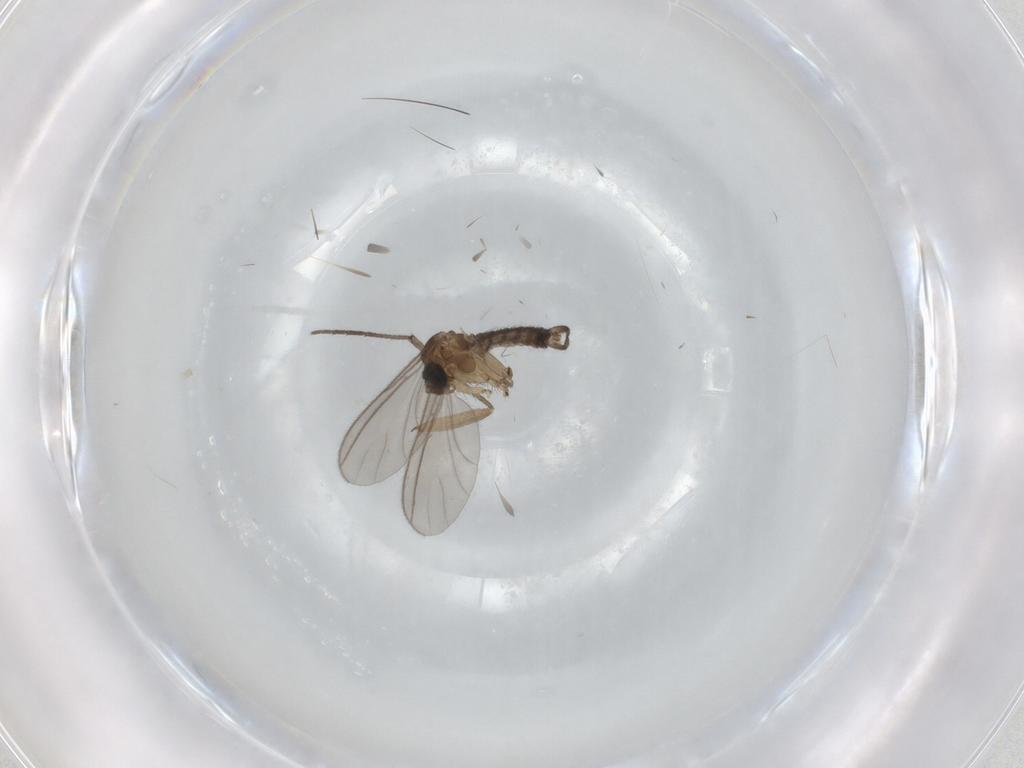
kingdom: Animalia
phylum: Arthropoda
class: Insecta
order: Diptera
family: Sciaridae
